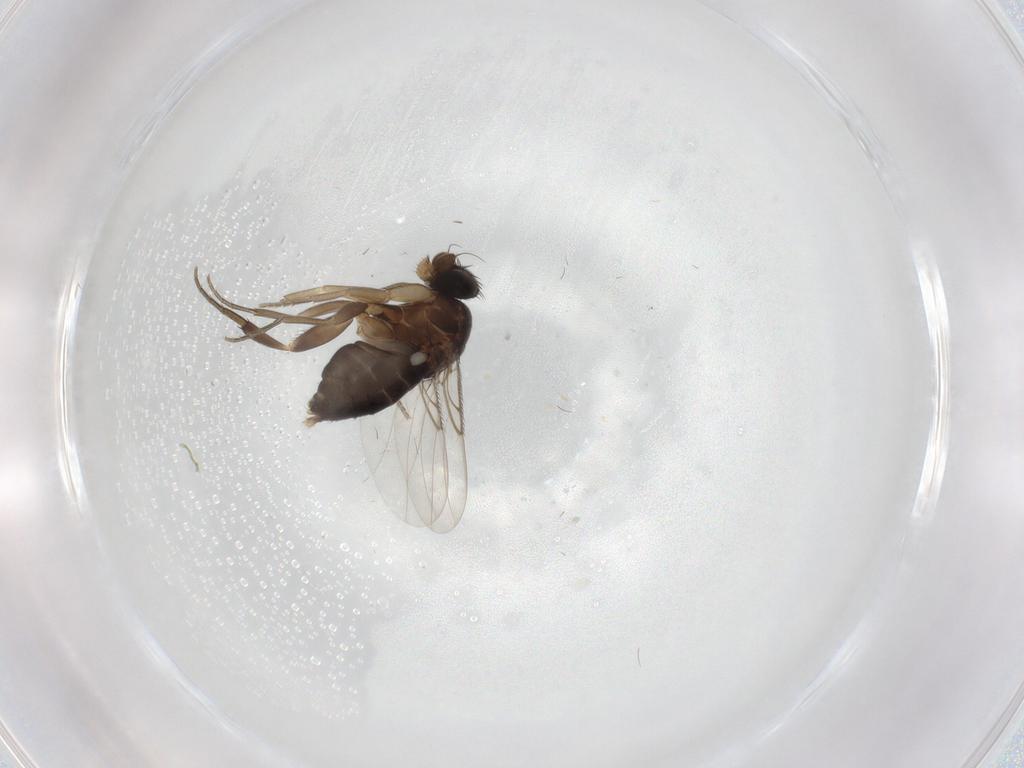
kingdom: Animalia
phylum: Arthropoda
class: Insecta
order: Diptera
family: Phoridae
